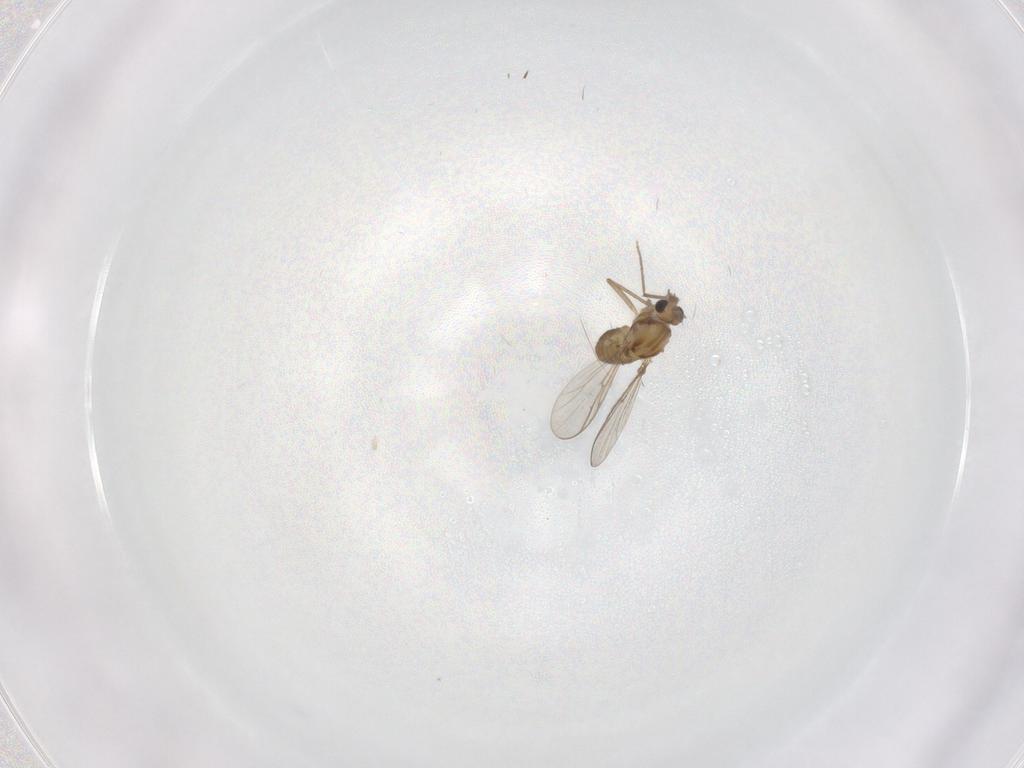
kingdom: Animalia
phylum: Arthropoda
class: Insecta
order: Diptera
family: Chironomidae
